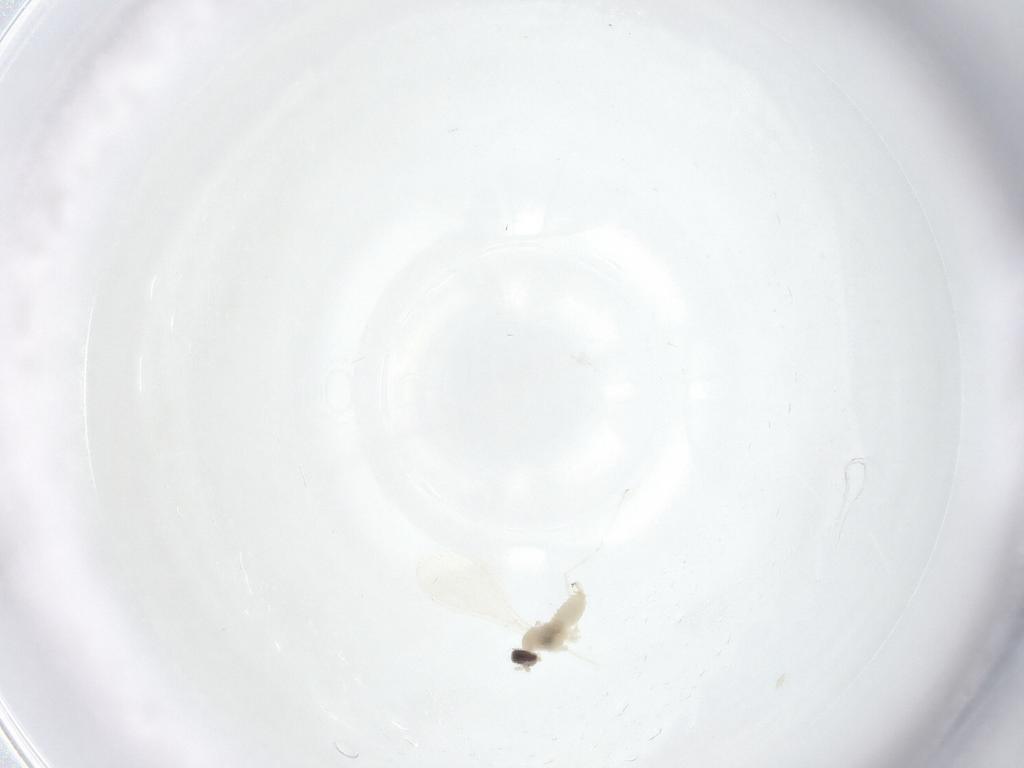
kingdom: Animalia
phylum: Arthropoda
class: Insecta
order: Diptera
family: Cecidomyiidae
